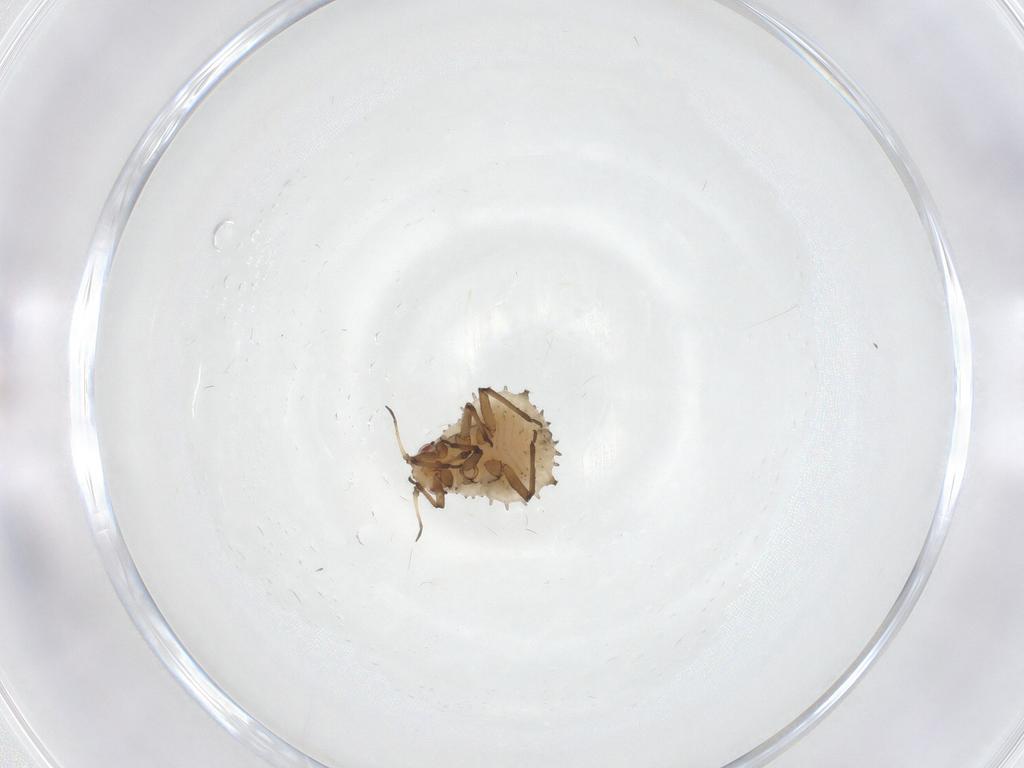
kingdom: Animalia
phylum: Arthropoda
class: Insecta
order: Hemiptera
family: Aphididae
